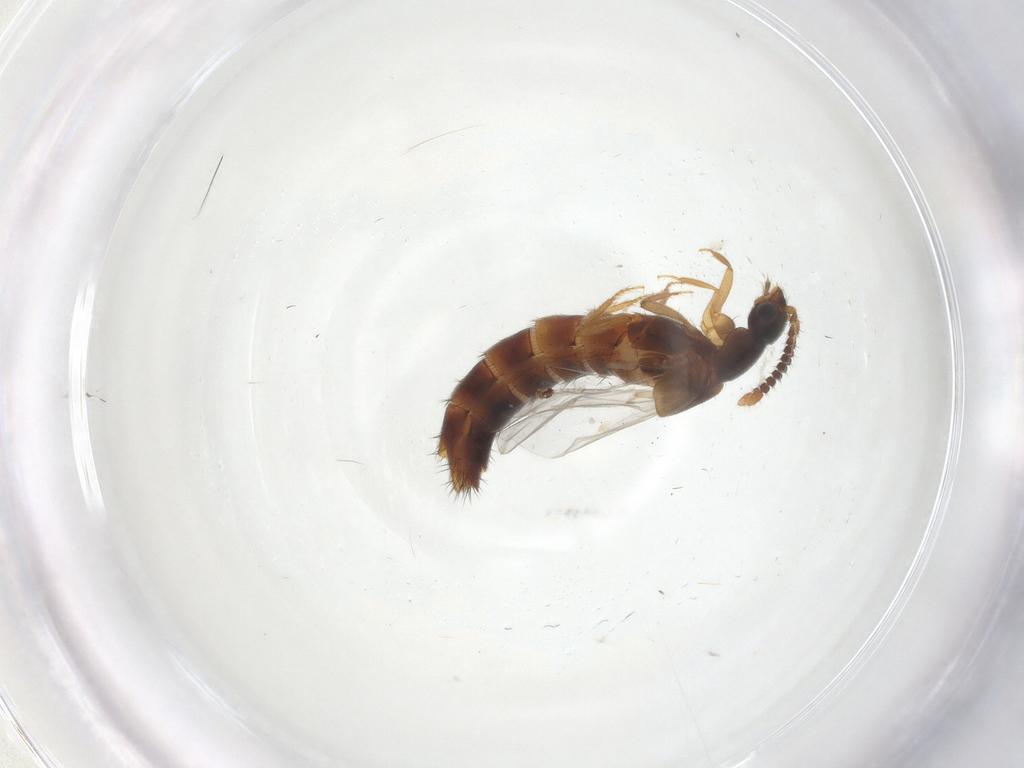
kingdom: Animalia
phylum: Arthropoda
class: Insecta
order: Coleoptera
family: Staphylinidae
